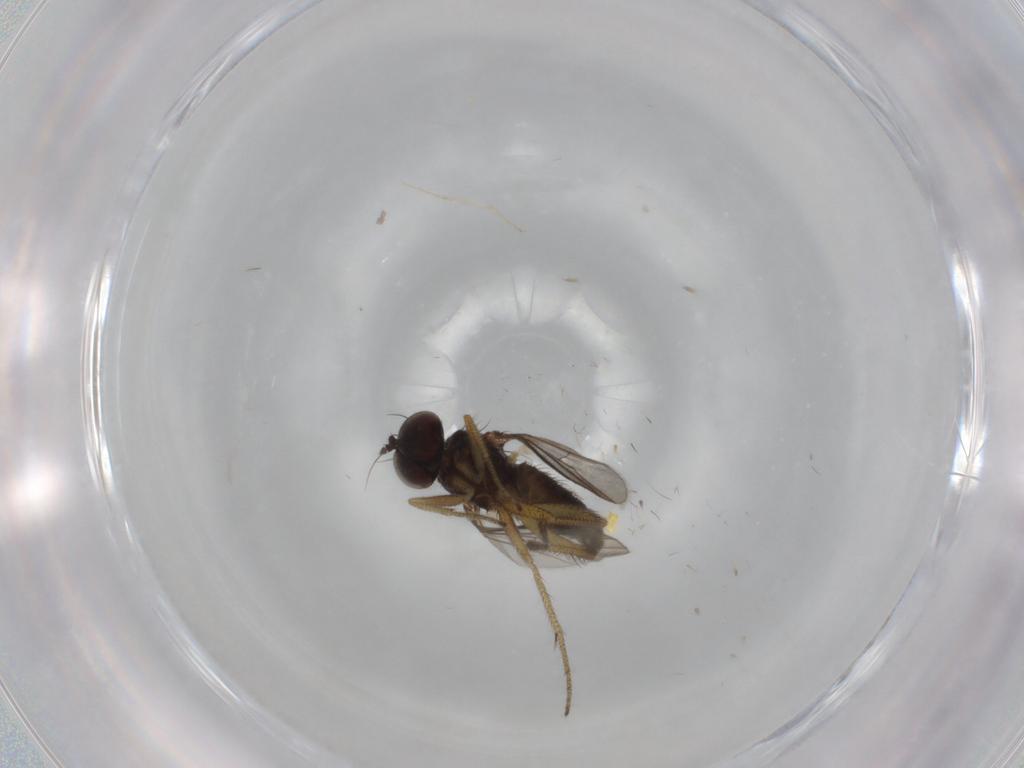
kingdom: Animalia
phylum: Arthropoda
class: Insecta
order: Diptera
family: Dolichopodidae
